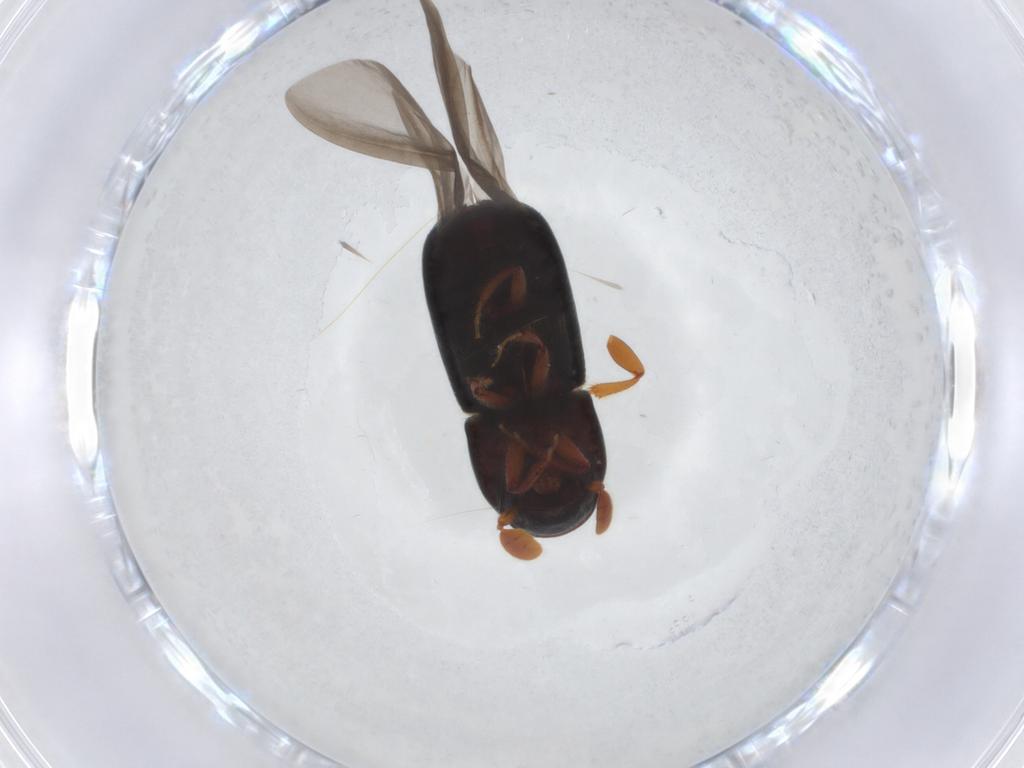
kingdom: Animalia
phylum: Arthropoda
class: Insecta
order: Coleoptera
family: Curculionidae
